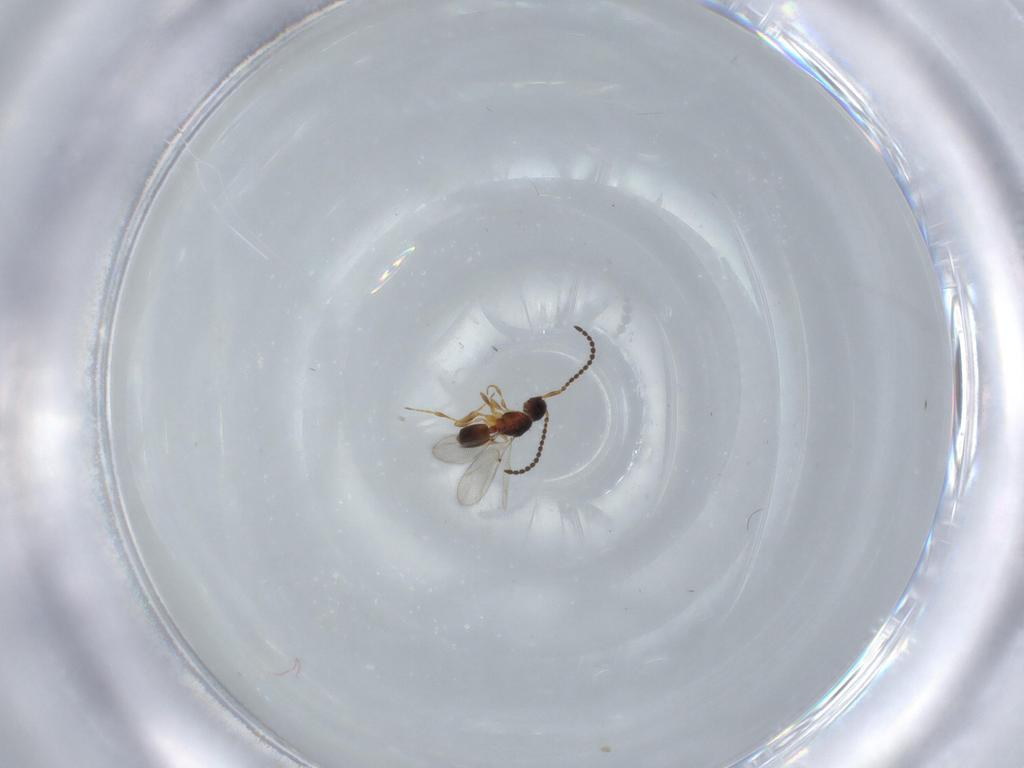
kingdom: Animalia
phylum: Arthropoda
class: Insecta
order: Hymenoptera
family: Diapriidae
